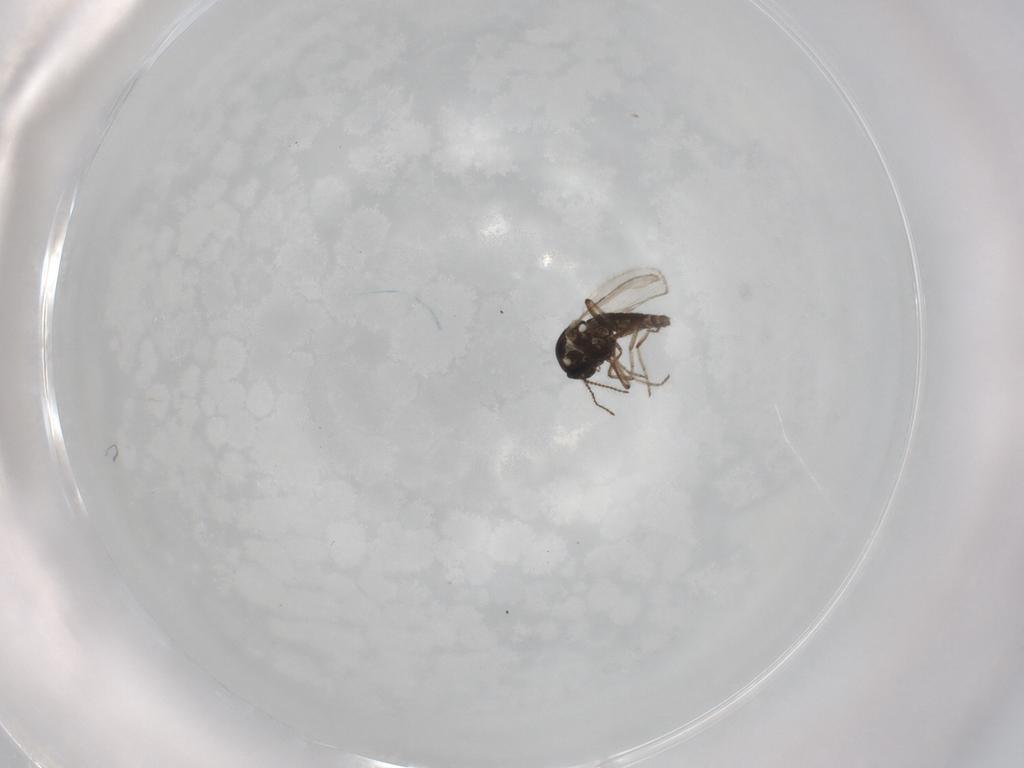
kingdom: Animalia
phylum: Arthropoda
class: Insecta
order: Diptera
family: Ceratopogonidae
